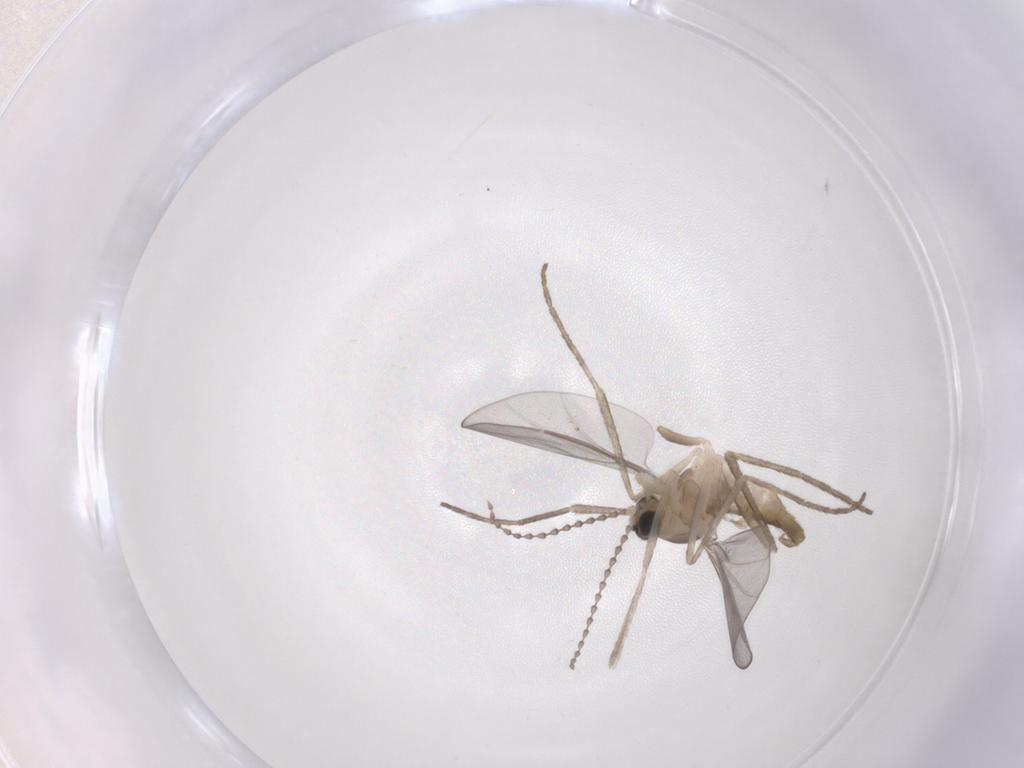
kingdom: Animalia
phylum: Arthropoda
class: Insecta
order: Diptera
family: Cecidomyiidae
